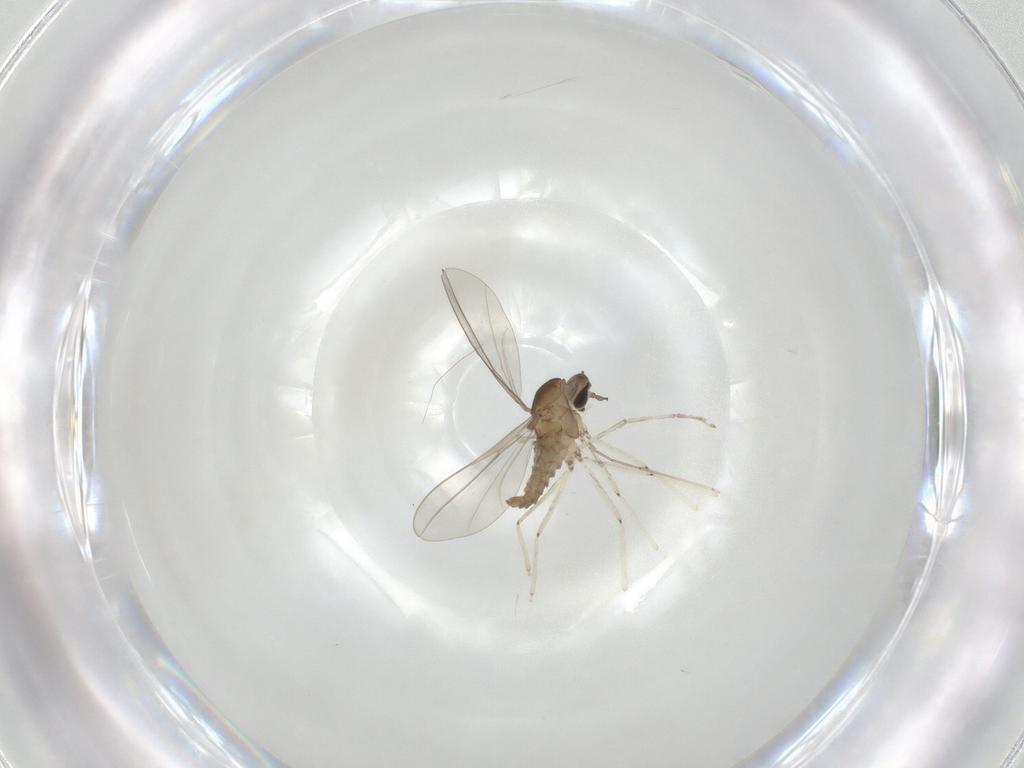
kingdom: Animalia
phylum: Arthropoda
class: Insecta
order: Diptera
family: Cecidomyiidae
